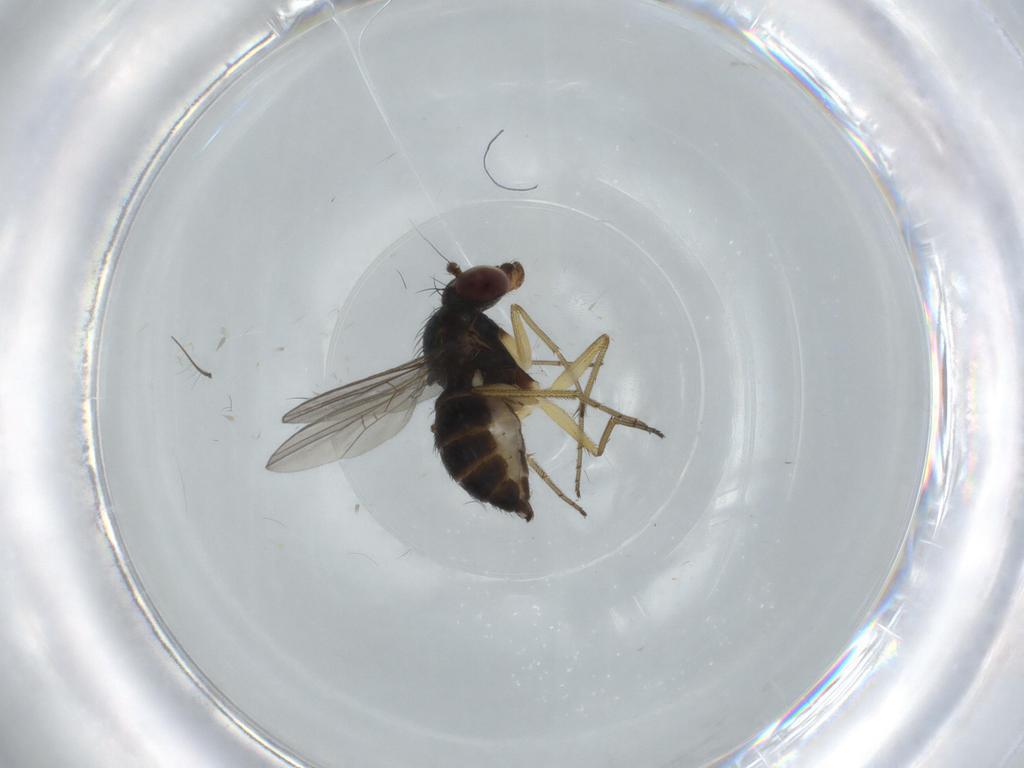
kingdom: Animalia
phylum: Arthropoda
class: Insecta
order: Diptera
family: Dolichopodidae
